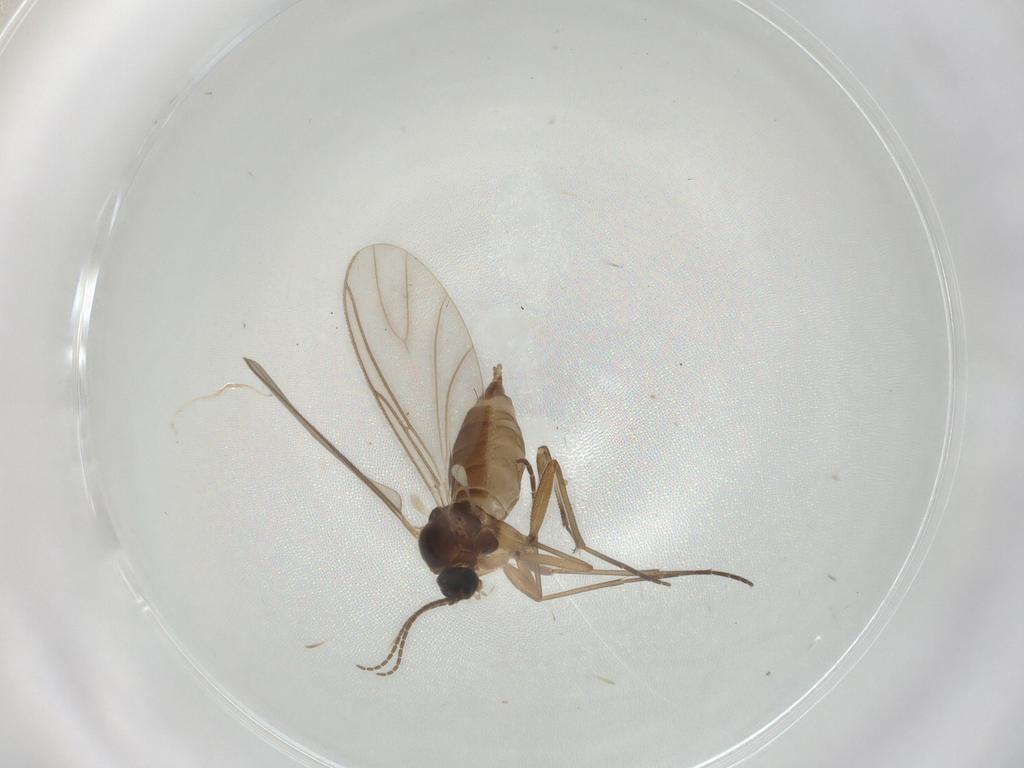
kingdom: Animalia
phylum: Arthropoda
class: Insecta
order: Diptera
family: Sciaridae
